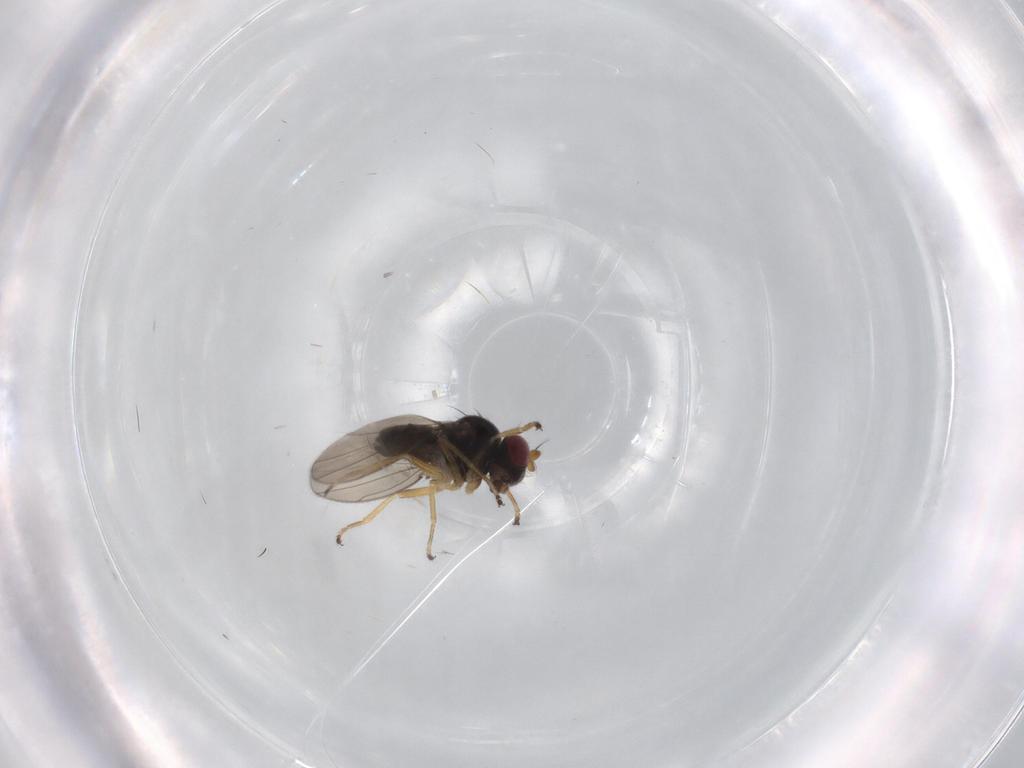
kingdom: Animalia
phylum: Arthropoda
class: Insecta
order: Diptera
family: Ephydridae
